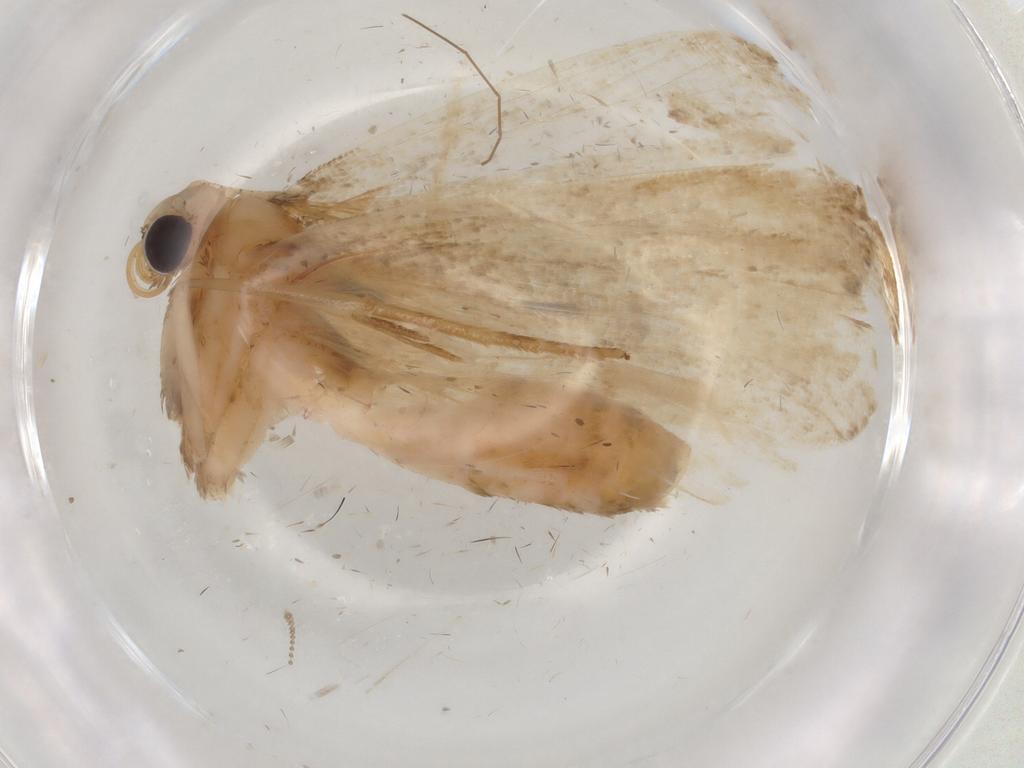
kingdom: Animalia
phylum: Arthropoda
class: Insecta
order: Lepidoptera
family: Erebidae
